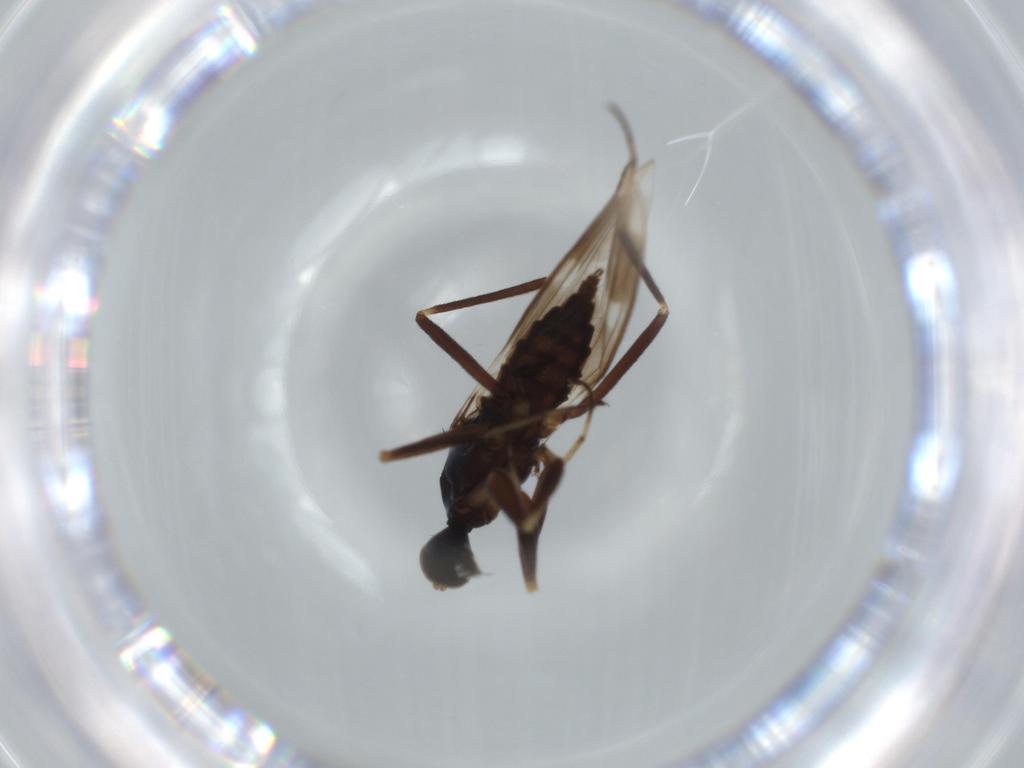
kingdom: Animalia
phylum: Arthropoda
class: Insecta
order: Diptera
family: Hybotidae
